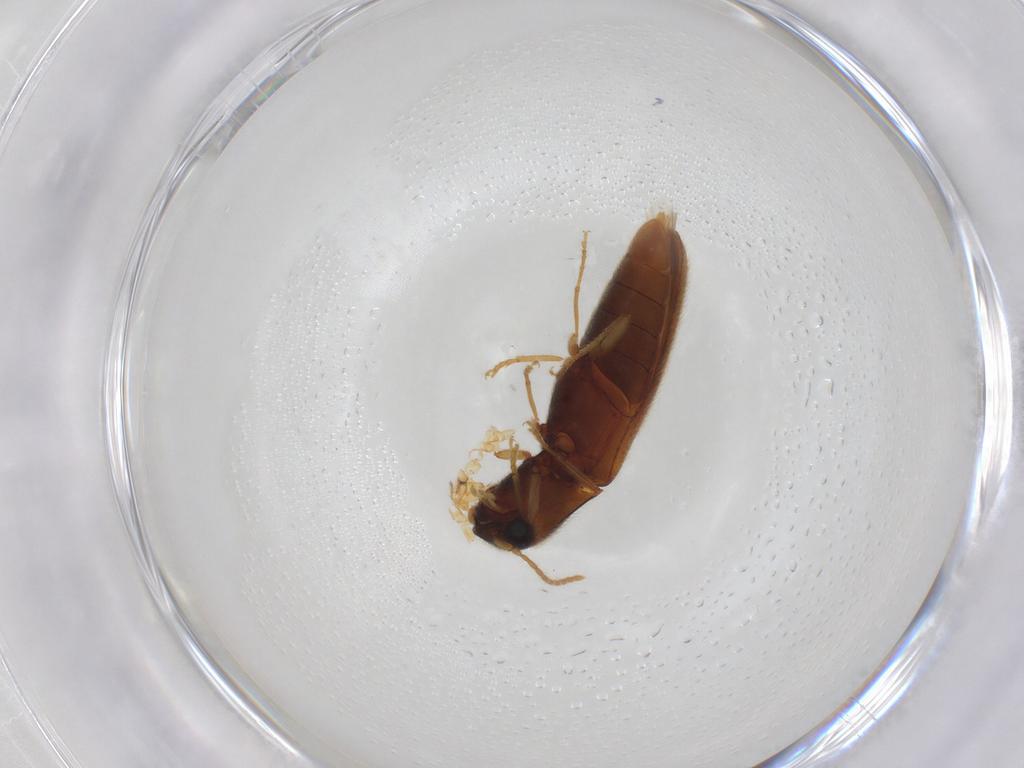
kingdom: Animalia
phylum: Arthropoda
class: Insecta
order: Coleoptera
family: Elateridae
